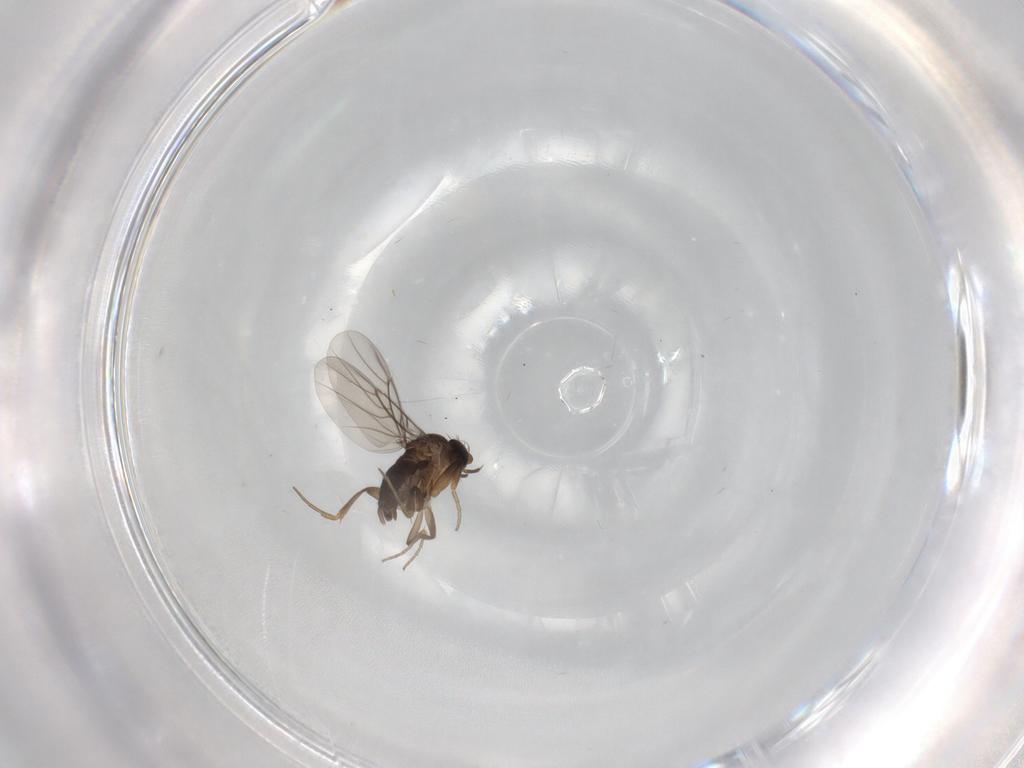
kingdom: Animalia
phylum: Arthropoda
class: Insecta
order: Diptera
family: Phoridae
